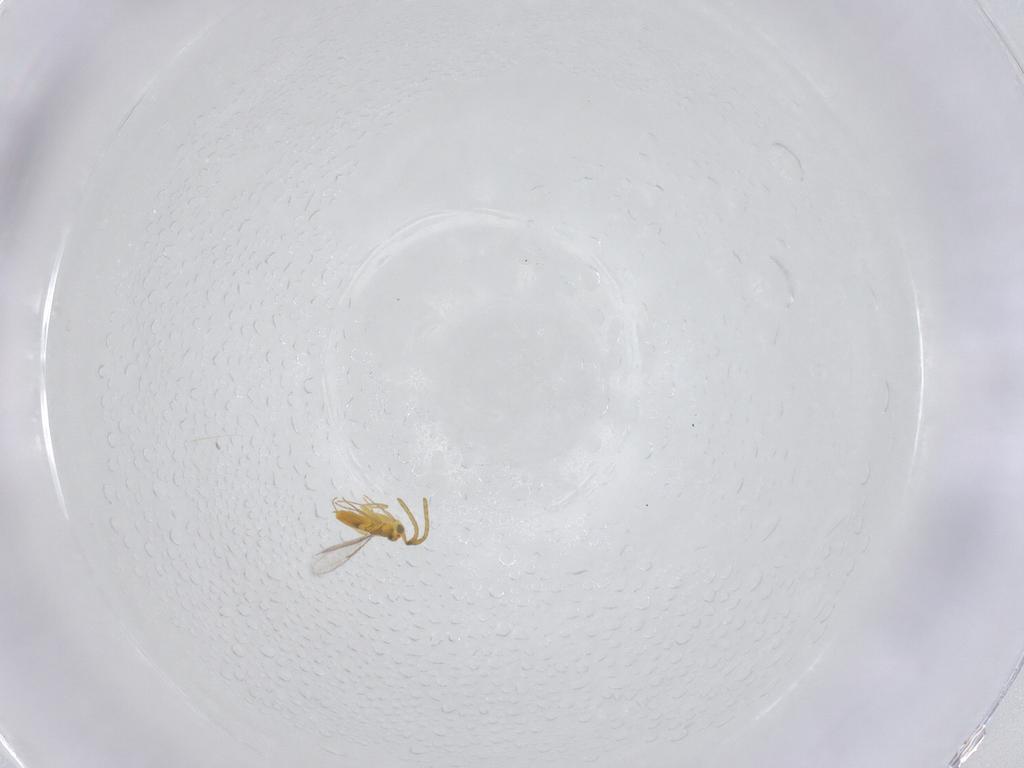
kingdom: Animalia
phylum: Arthropoda
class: Insecta
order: Hymenoptera
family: Aphelinidae
